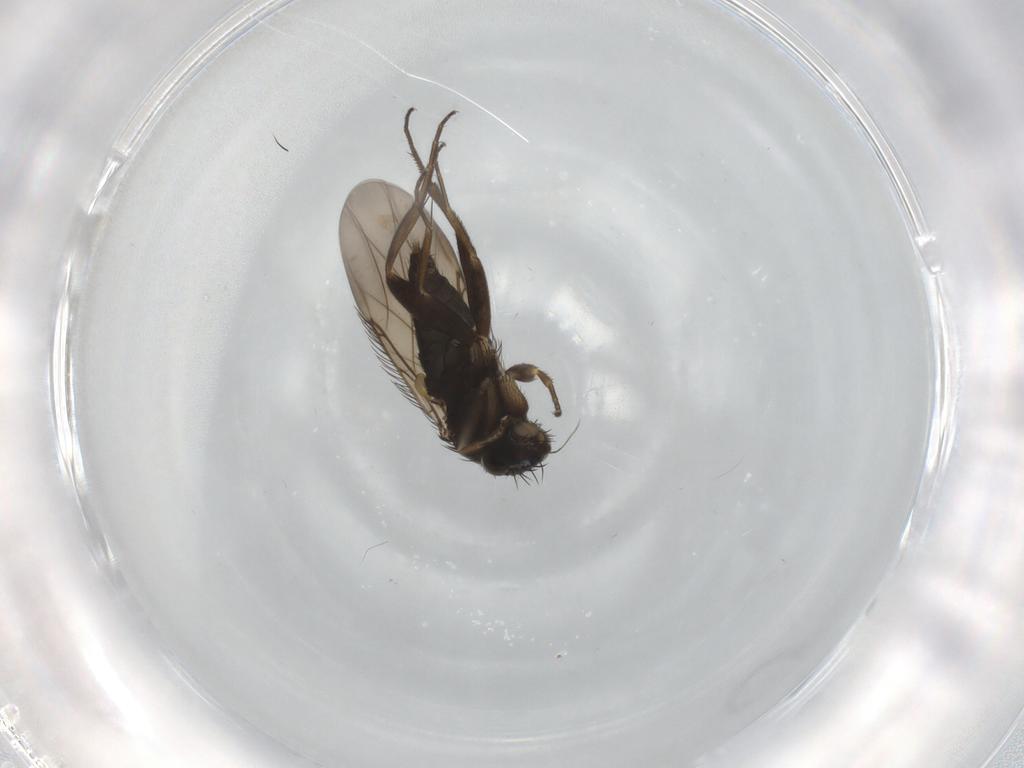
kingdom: Animalia
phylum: Arthropoda
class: Insecta
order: Diptera
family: Phoridae
